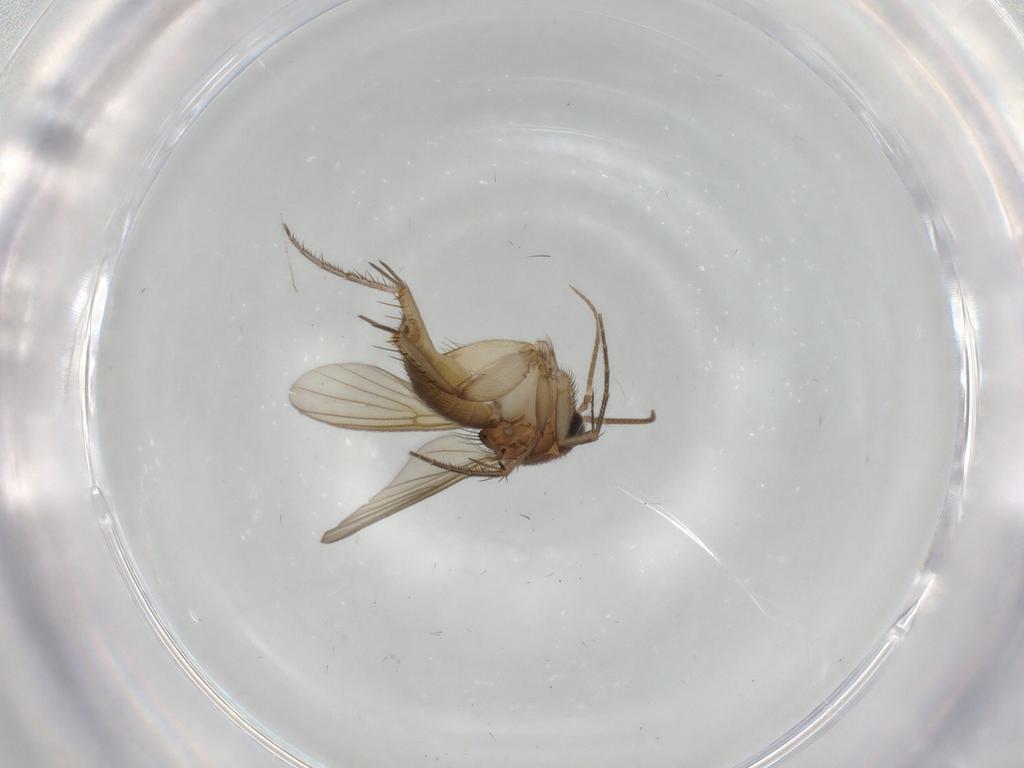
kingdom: Animalia
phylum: Arthropoda
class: Insecta
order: Diptera
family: Mycetophilidae
